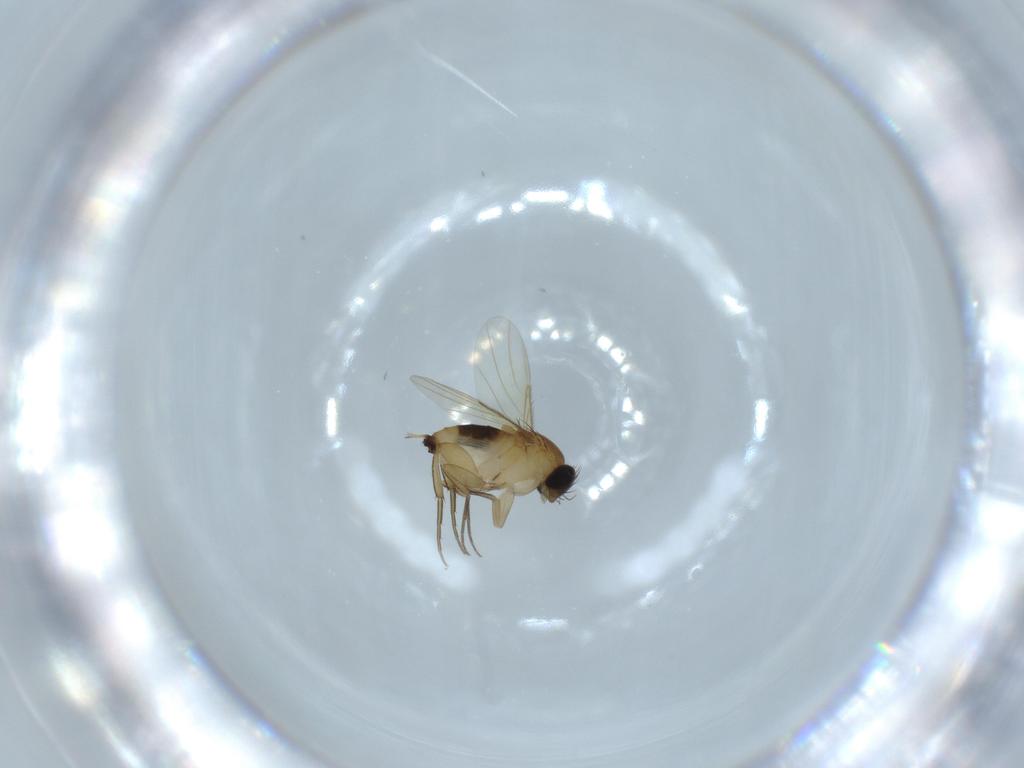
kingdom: Animalia
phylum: Arthropoda
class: Insecta
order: Diptera
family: Phoridae
